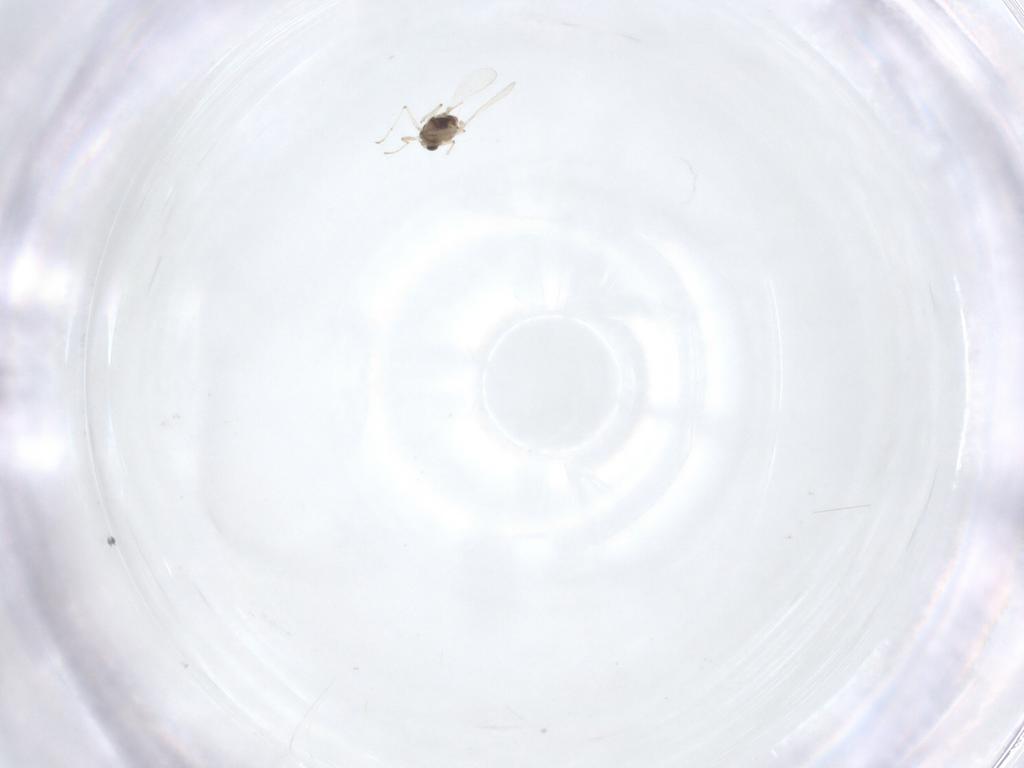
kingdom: Animalia
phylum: Arthropoda
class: Insecta
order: Diptera
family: Chironomidae
